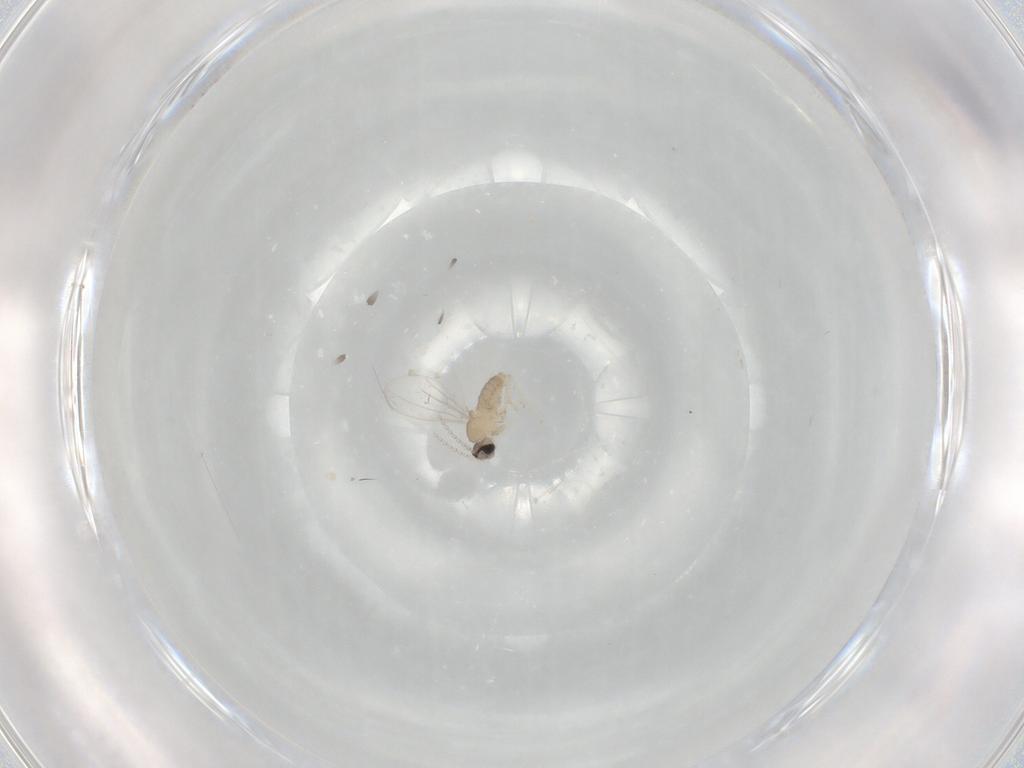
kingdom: Animalia
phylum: Arthropoda
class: Insecta
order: Diptera
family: Cecidomyiidae
